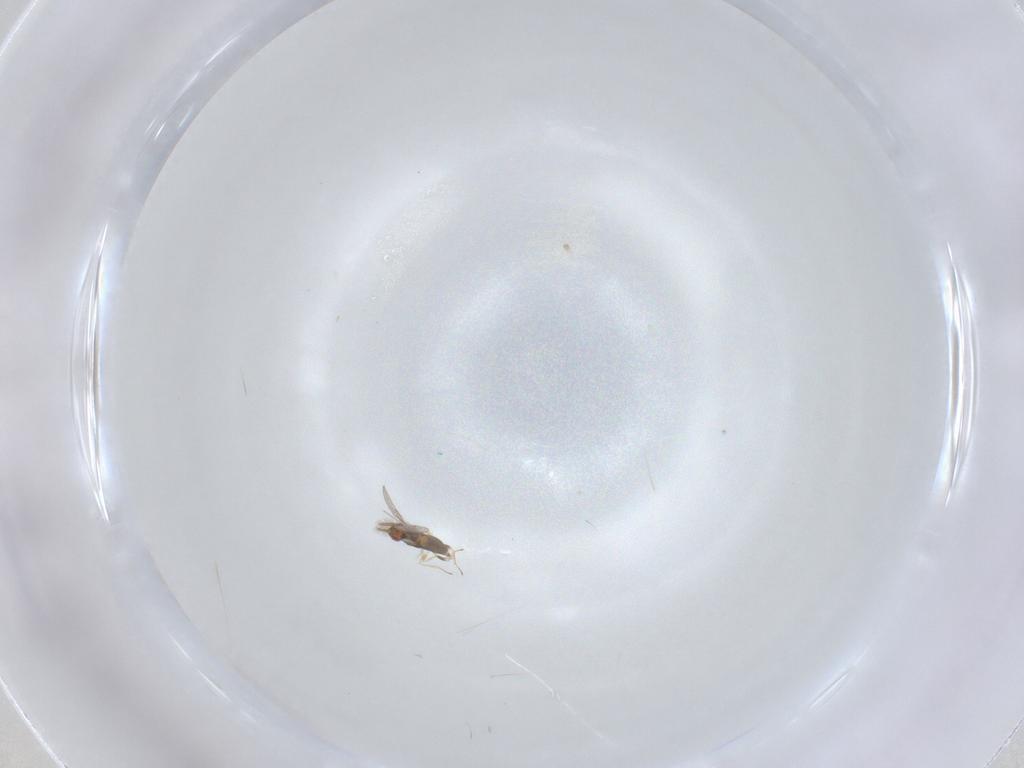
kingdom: Animalia
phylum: Arthropoda
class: Insecta
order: Hymenoptera
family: Trichogrammatidae
